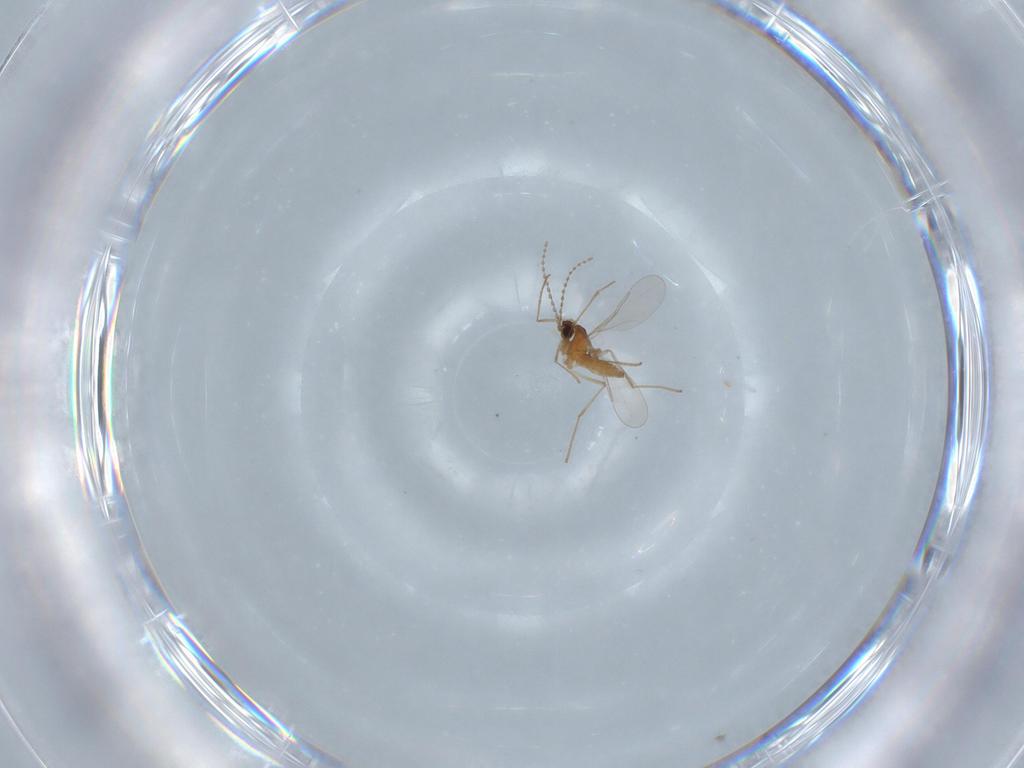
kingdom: Animalia
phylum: Arthropoda
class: Insecta
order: Diptera
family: Cecidomyiidae
